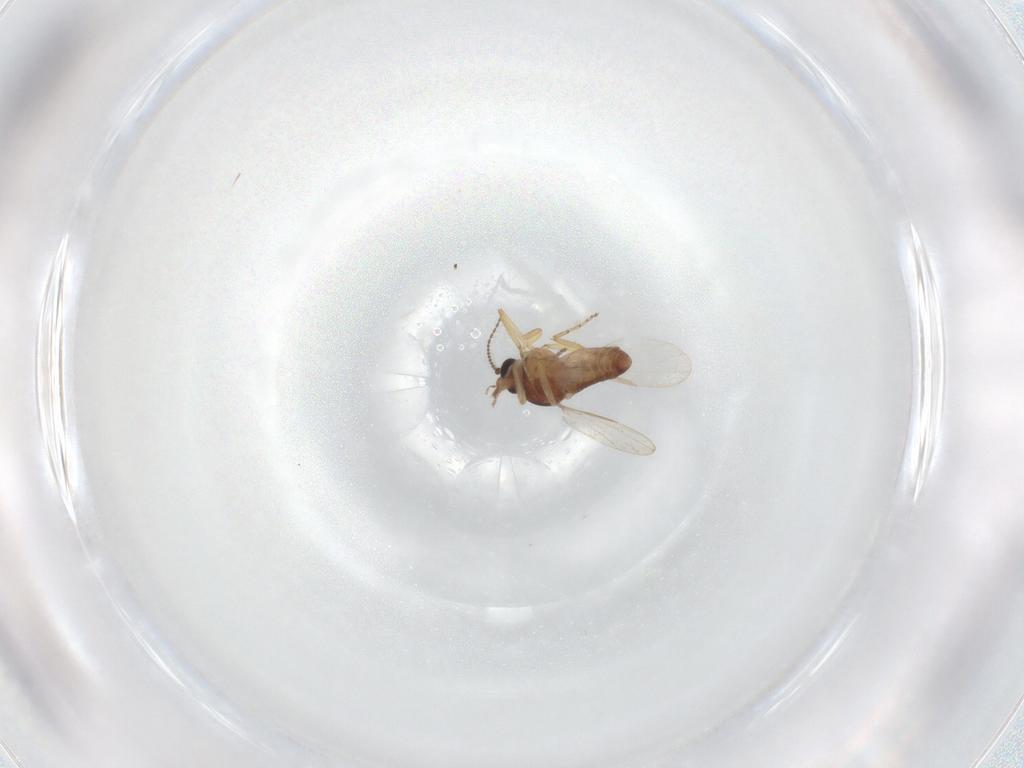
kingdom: Animalia
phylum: Arthropoda
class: Insecta
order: Diptera
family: Ceratopogonidae
